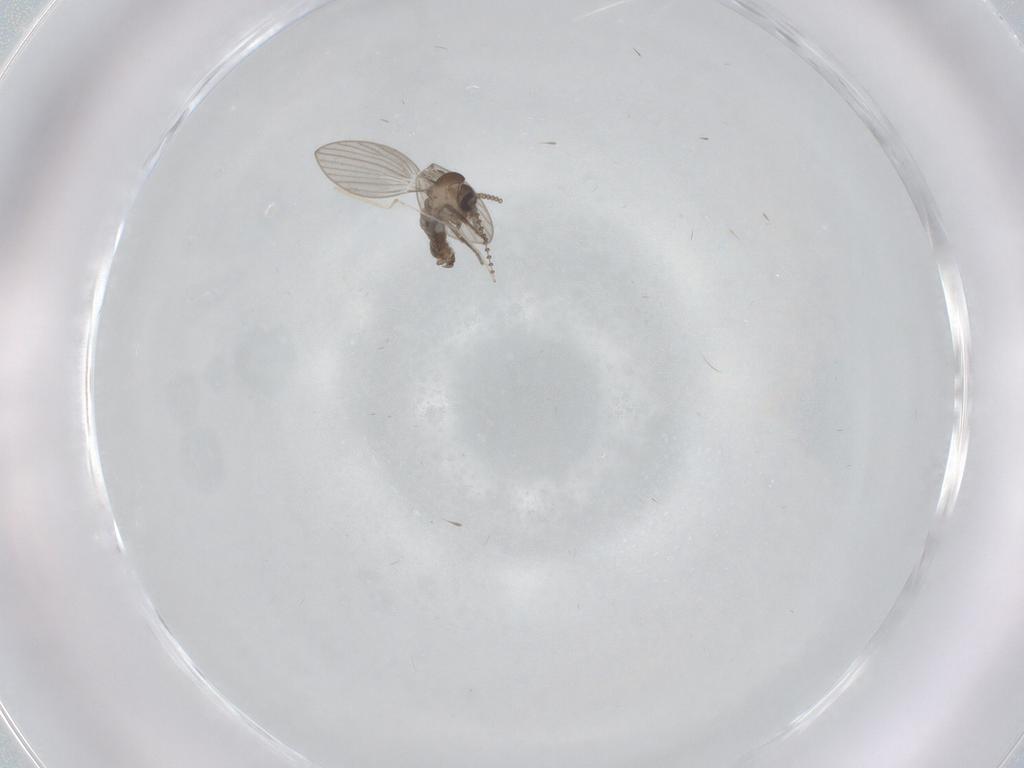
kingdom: Animalia
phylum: Arthropoda
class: Insecta
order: Diptera
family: Psychodidae
